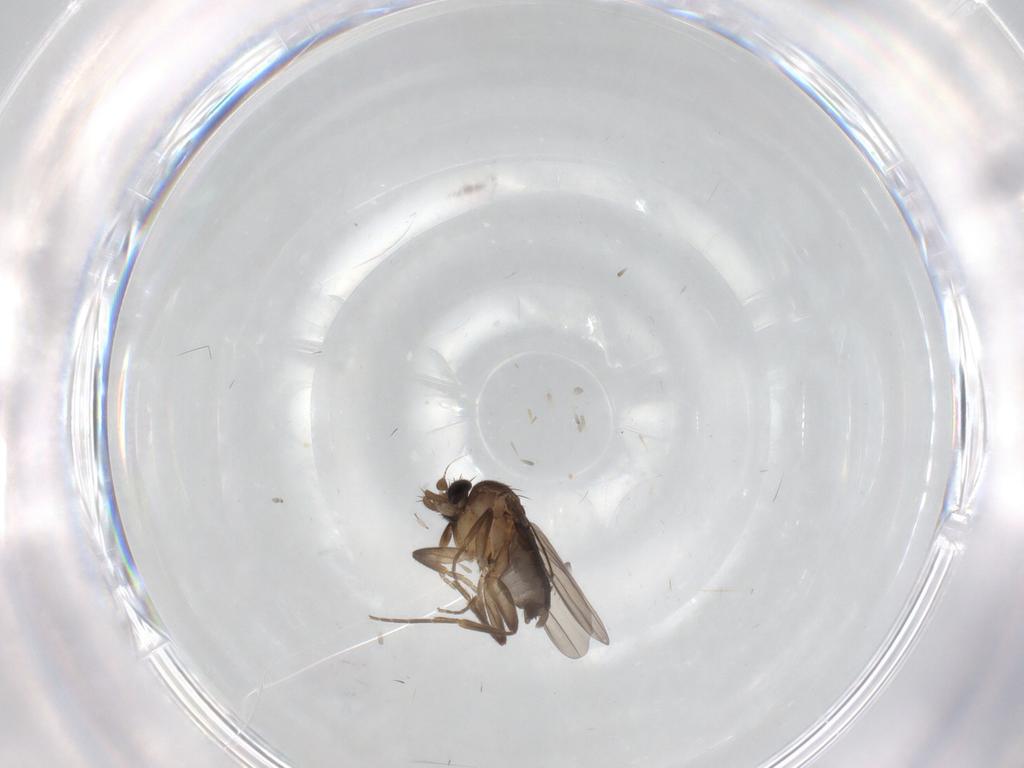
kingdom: Animalia
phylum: Arthropoda
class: Insecta
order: Diptera
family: Phoridae
